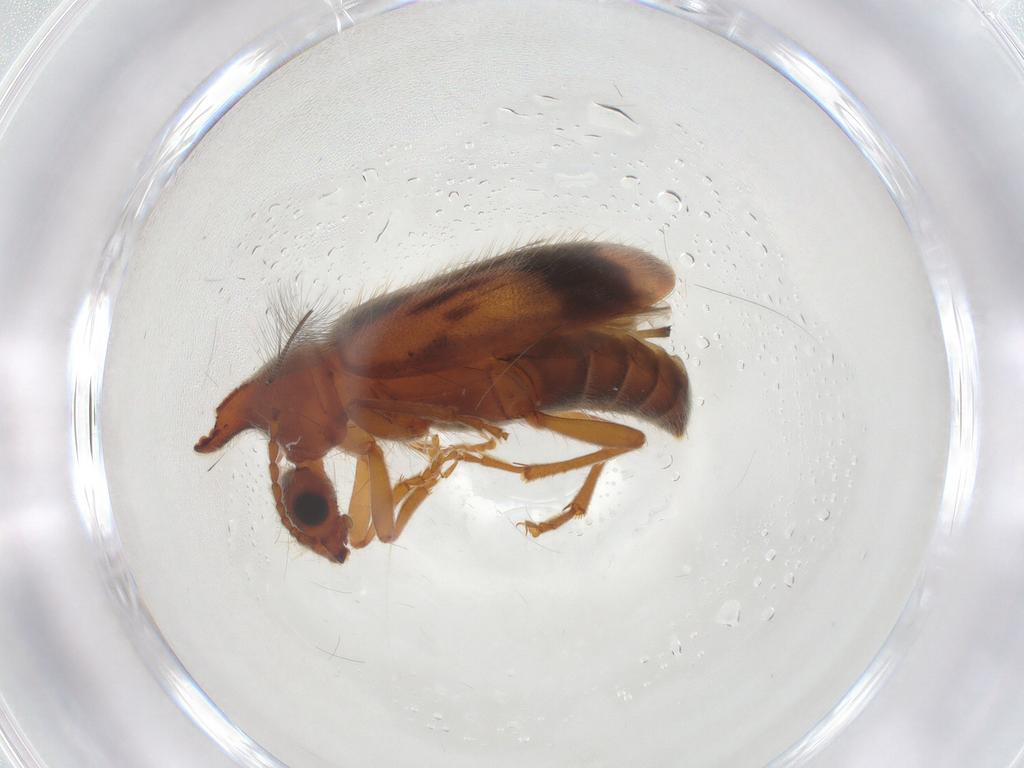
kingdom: Animalia
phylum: Arthropoda
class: Insecta
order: Coleoptera
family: Anthicidae
